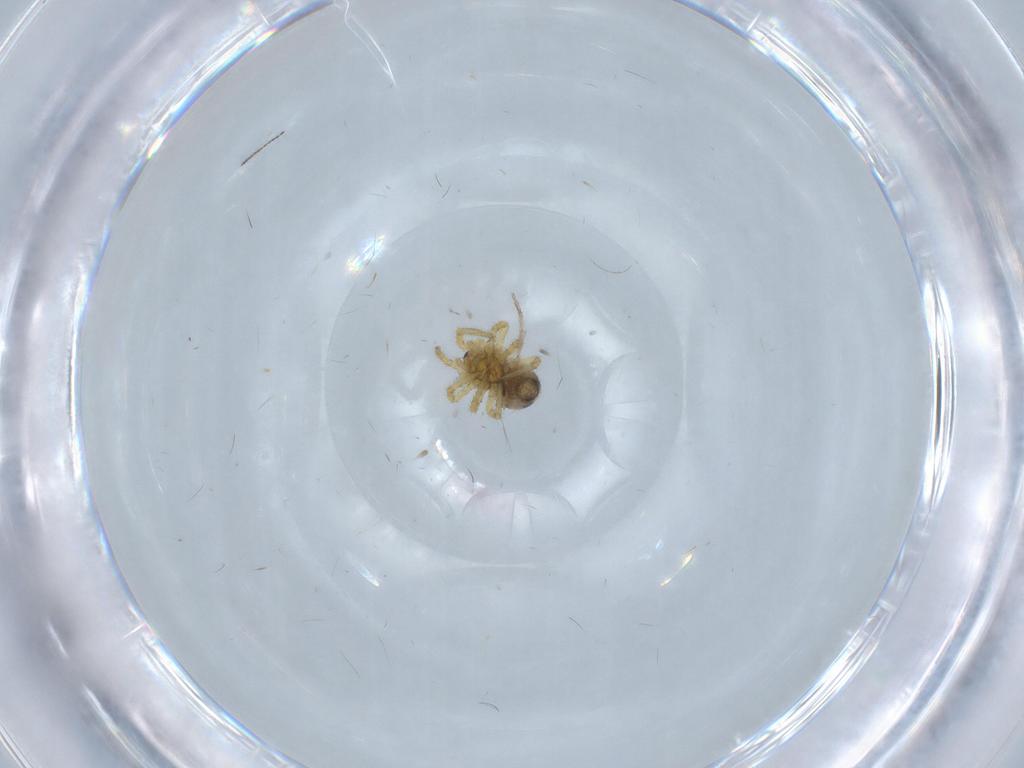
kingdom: Animalia
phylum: Arthropoda
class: Arachnida
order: Araneae
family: Theridiidae
